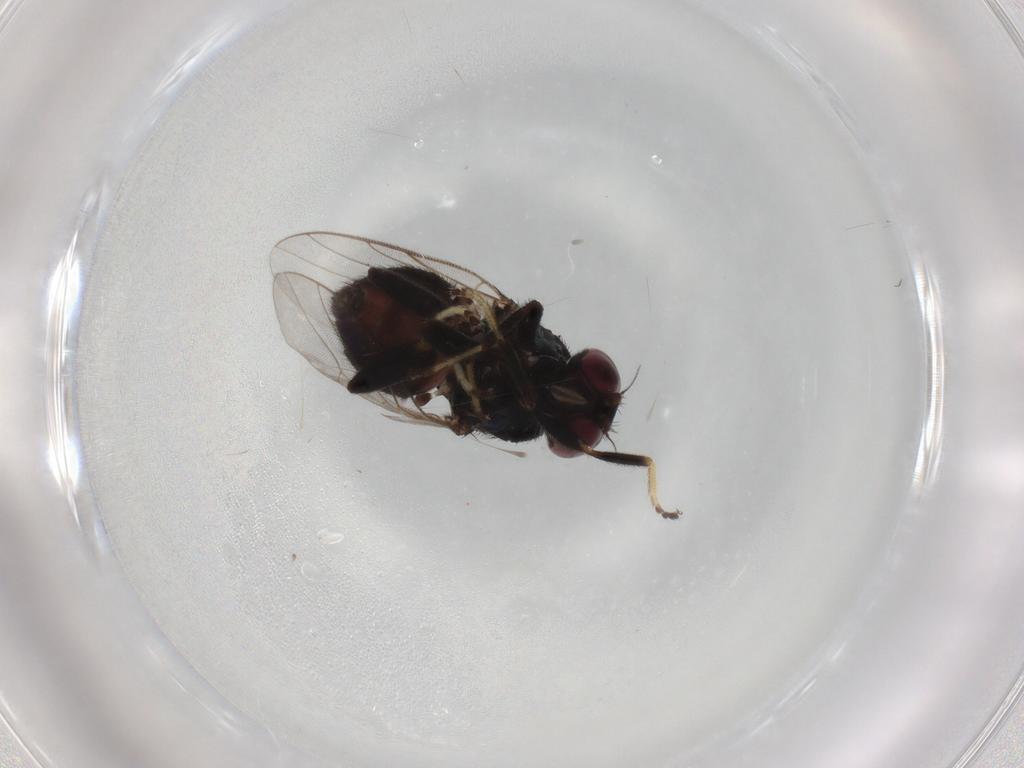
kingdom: Animalia
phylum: Arthropoda
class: Insecta
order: Diptera
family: Chloropidae
